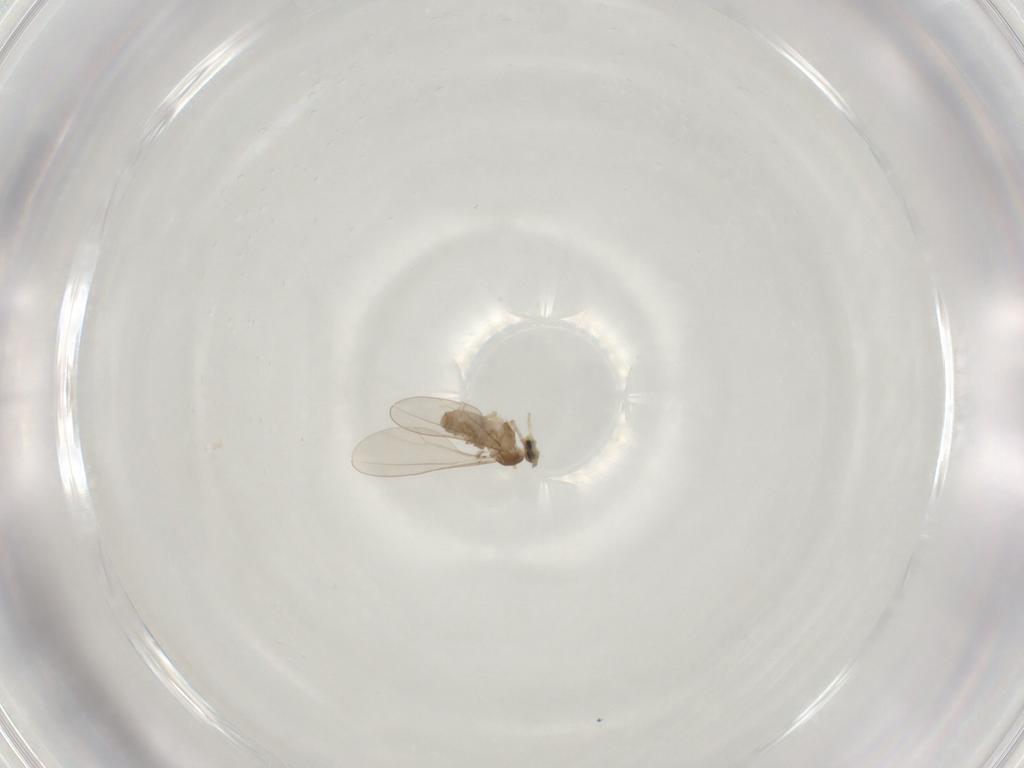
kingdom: Animalia
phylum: Arthropoda
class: Insecta
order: Diptera
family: Cecidomyiidae
